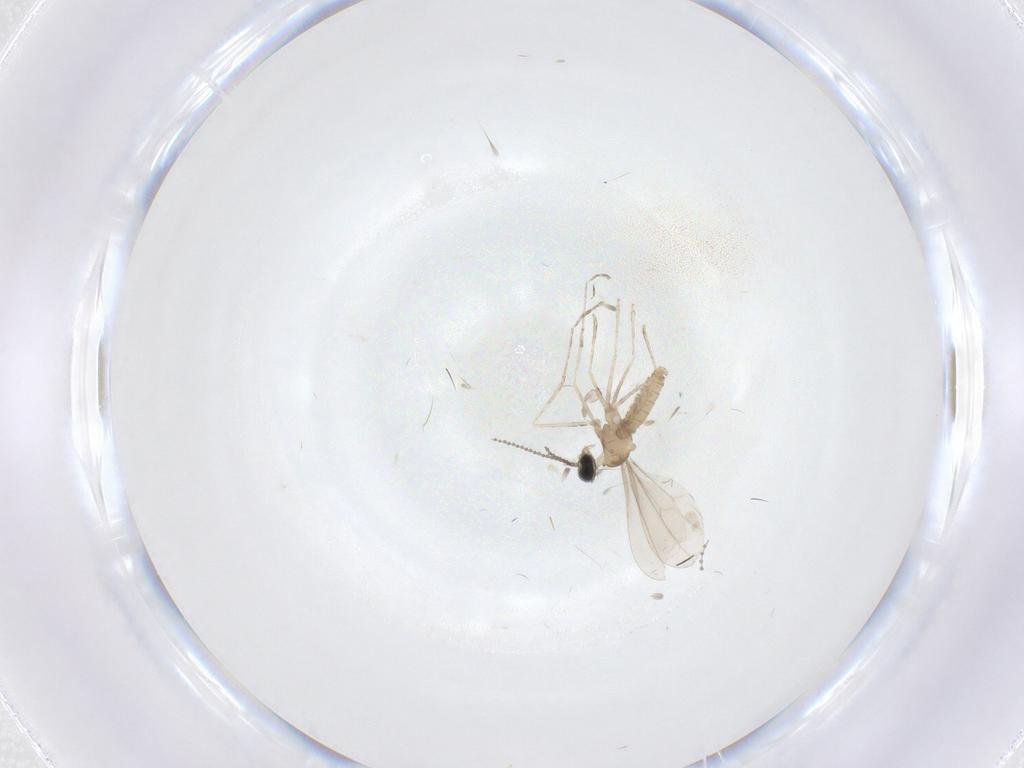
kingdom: Animalia
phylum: Arthropoda
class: Insecta
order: Diptera
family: Cecidomyiidae
